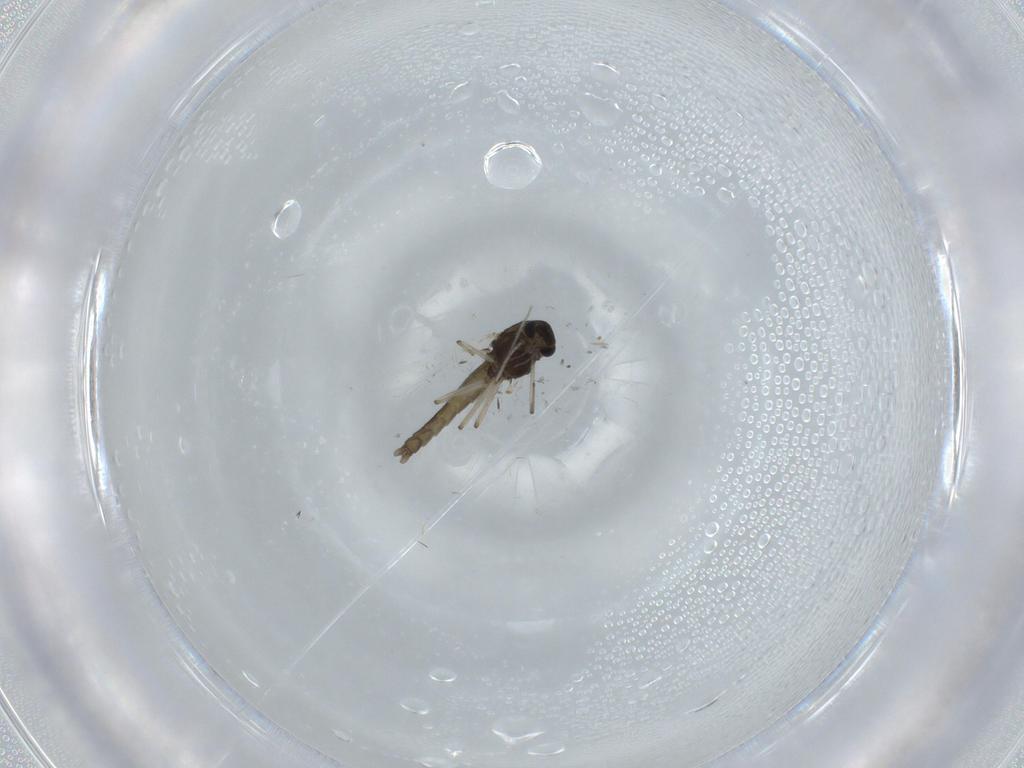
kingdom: Animalia
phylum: Arthropoda
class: Insecta
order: Diptera
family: Chironomidae
